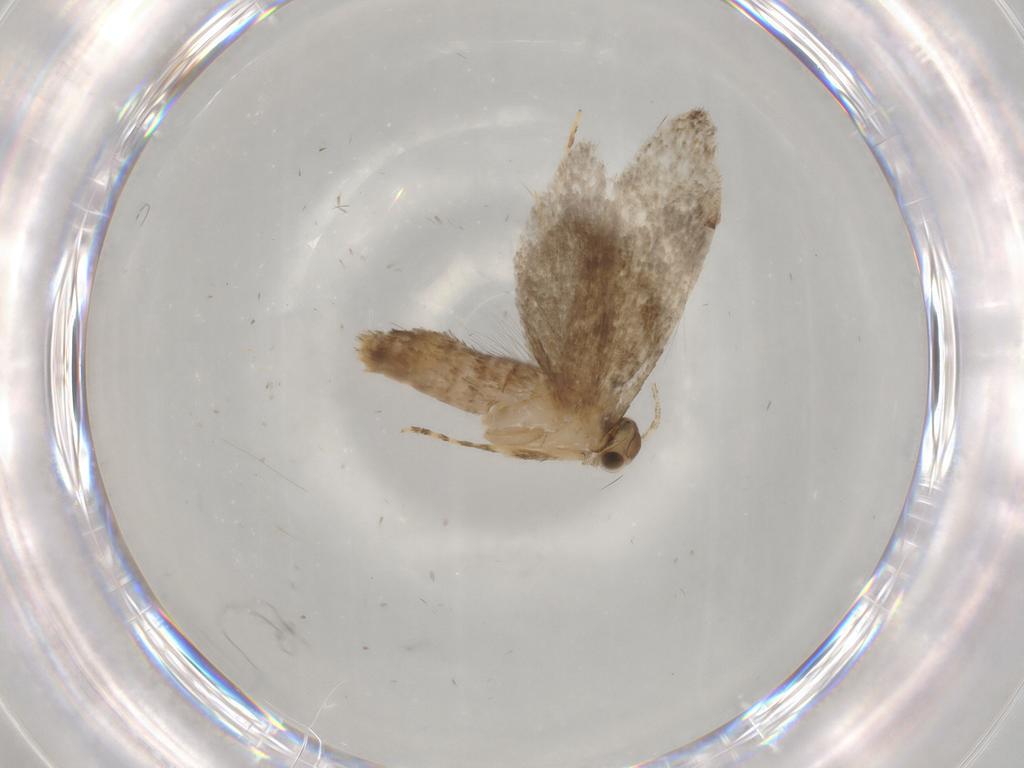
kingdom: Animalia
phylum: Arthropoda
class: Insecta
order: Lepidoptera
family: Tineidae
